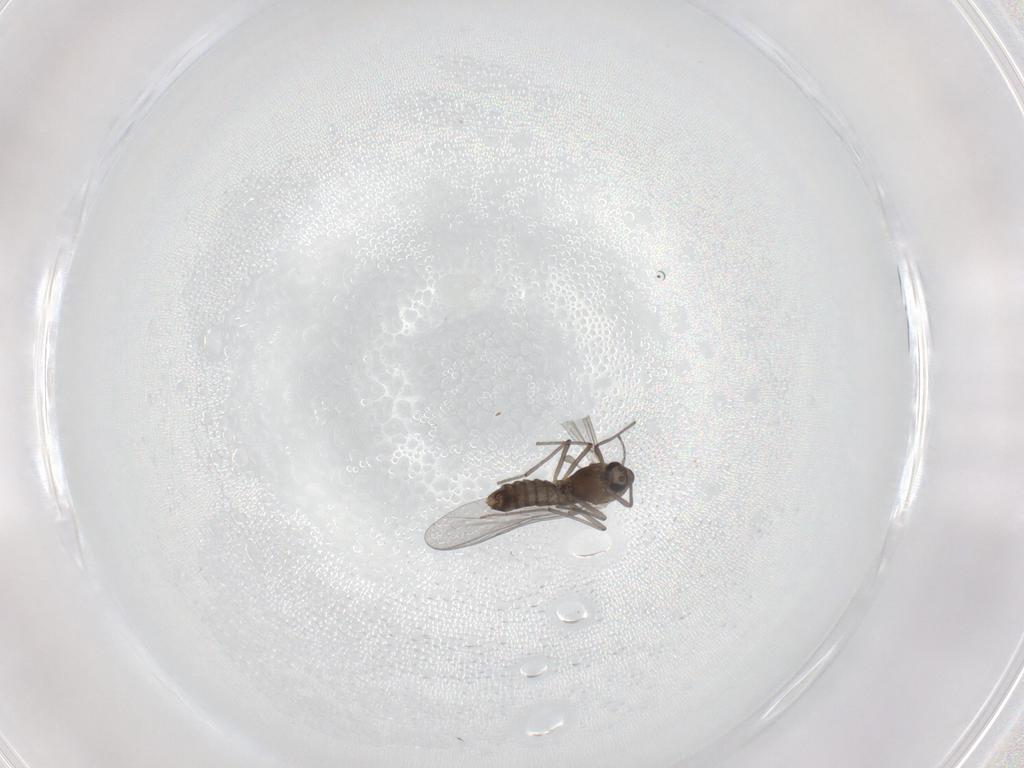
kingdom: Animalia
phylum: Arthropoda
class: Insecta
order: Diptera
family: Chironomidae
